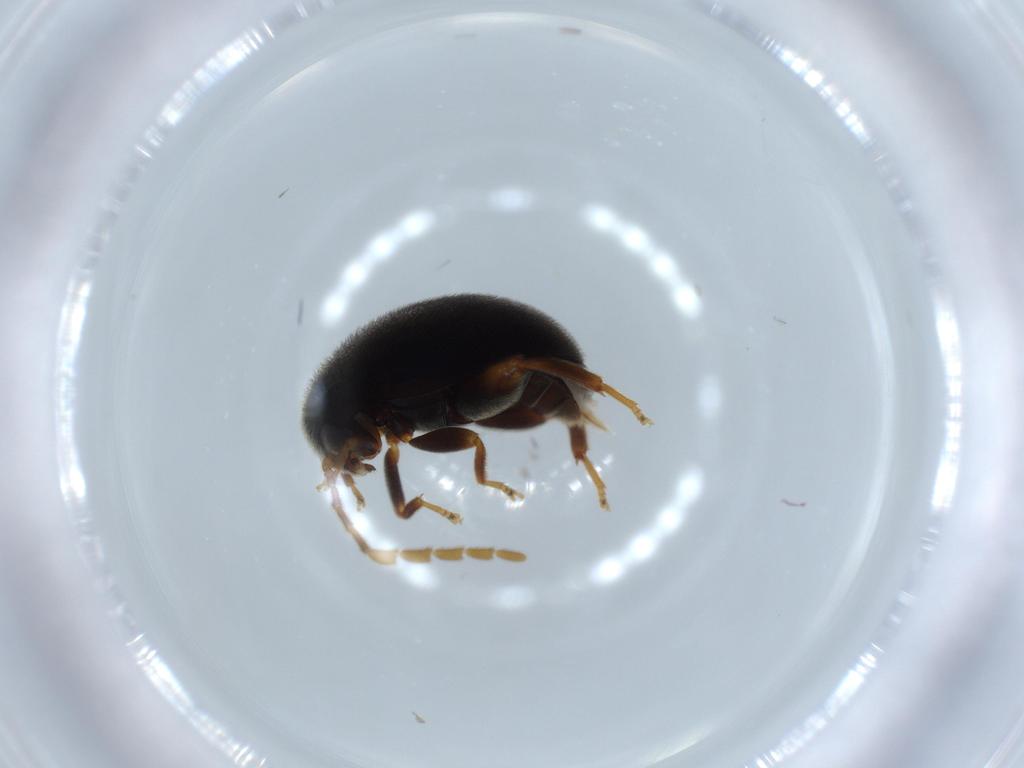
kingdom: Animalia
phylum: Arthropoda
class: Insecta
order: Coleoptera
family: Scirtidae
